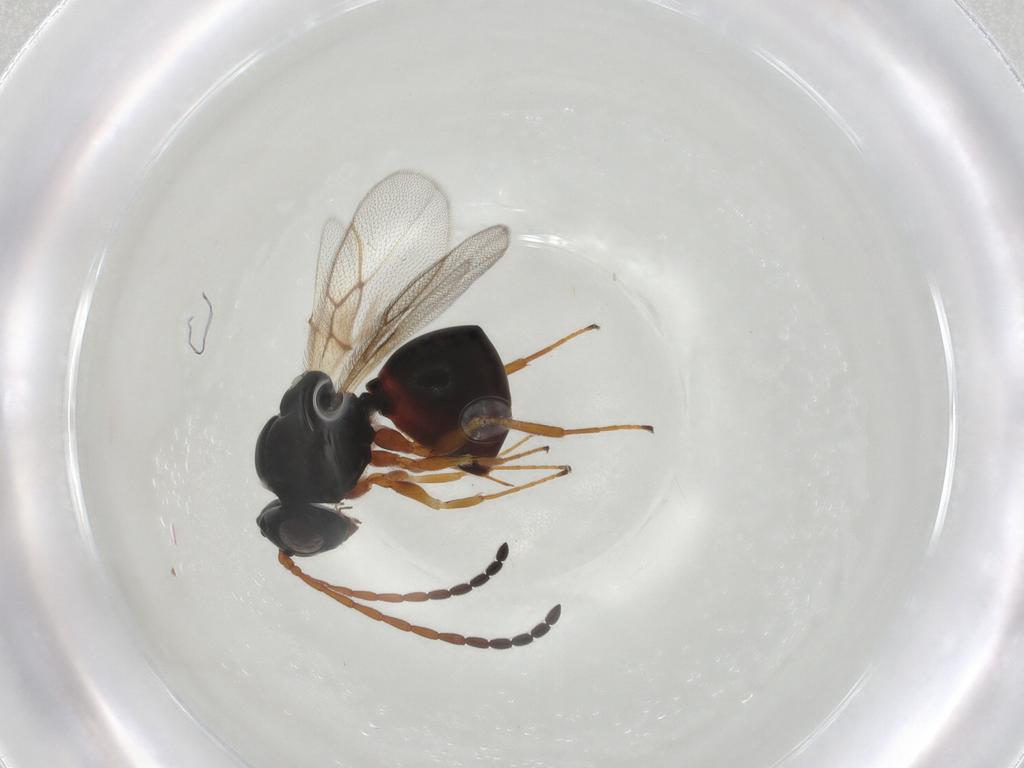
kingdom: Animalia
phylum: Arthropoda
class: Insecta
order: Hymenoptera
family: Figitidae
